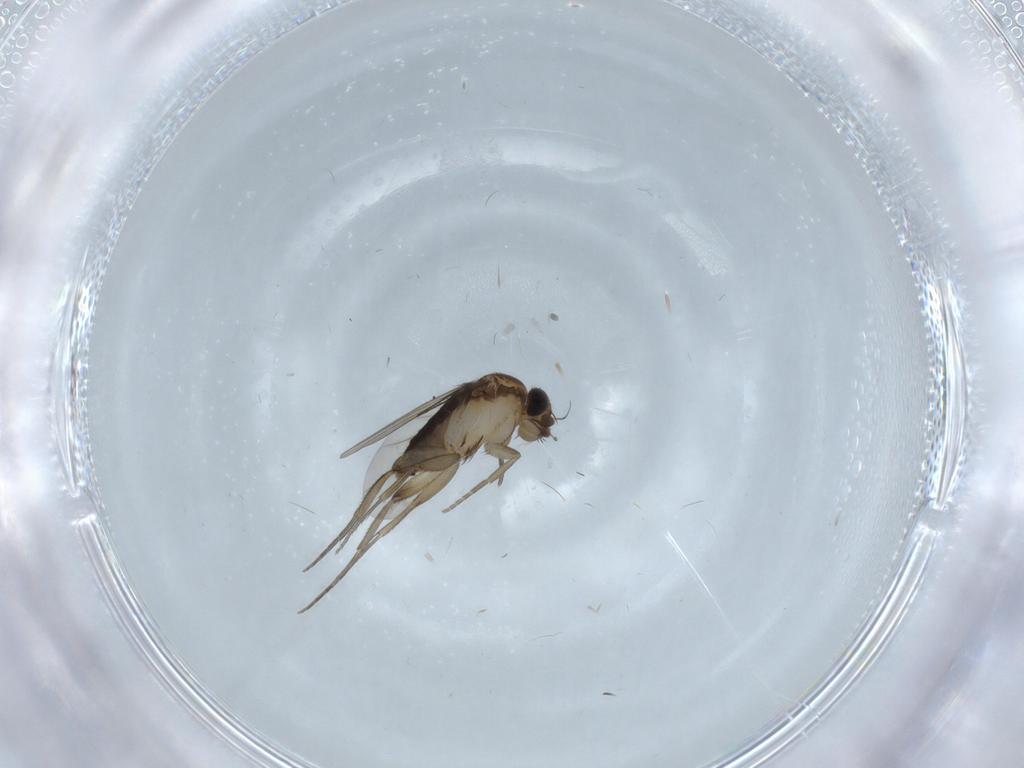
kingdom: Animalia
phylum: Arthropoda
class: Insecta
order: Diptera
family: Phoridae
